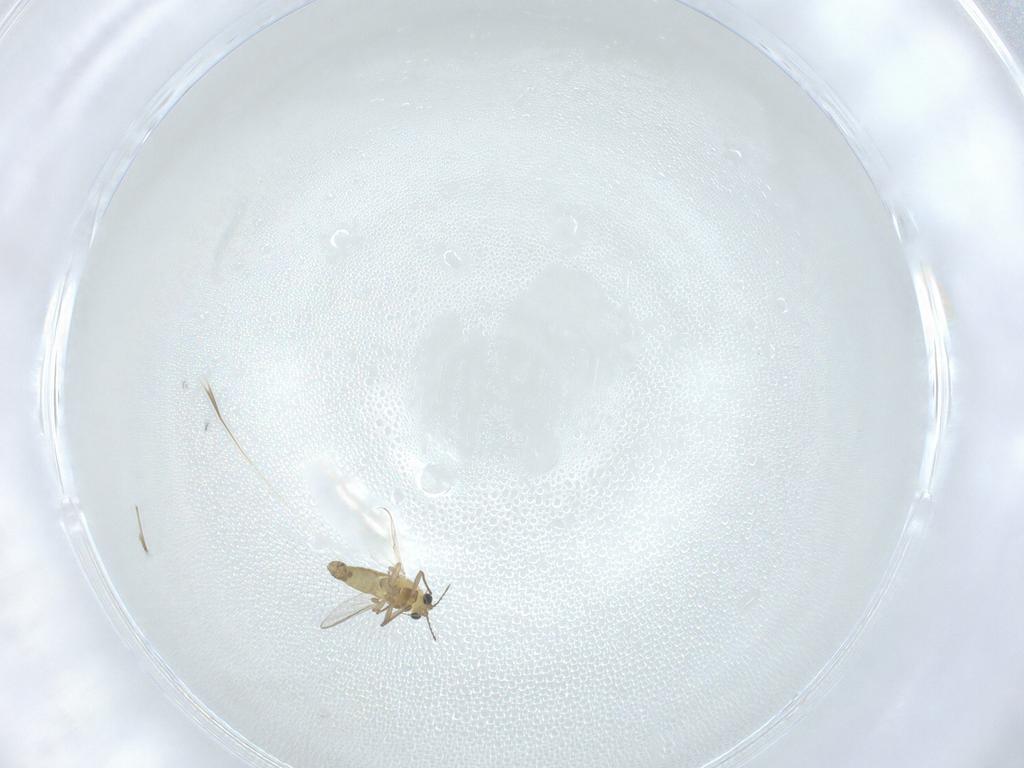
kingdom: Animalia
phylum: Arthropoda
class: Insecta
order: Diptera
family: Chironomidae
